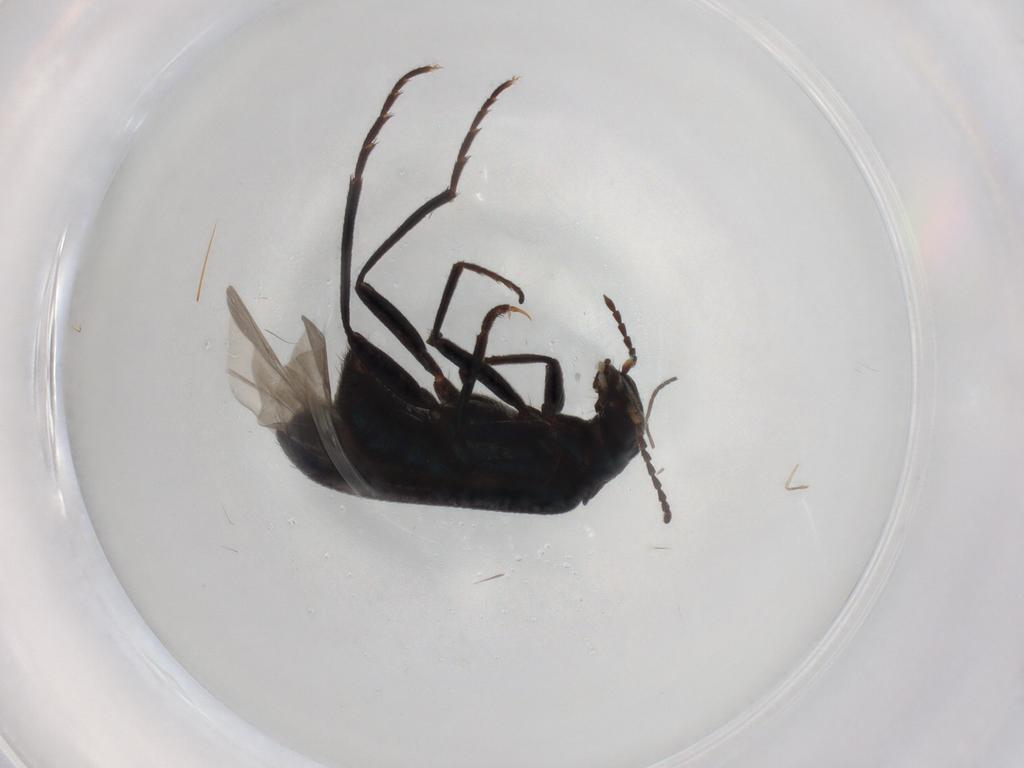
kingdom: Animalia
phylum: Arthropoda
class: Insecta
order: Coleoptera
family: Melyridae
